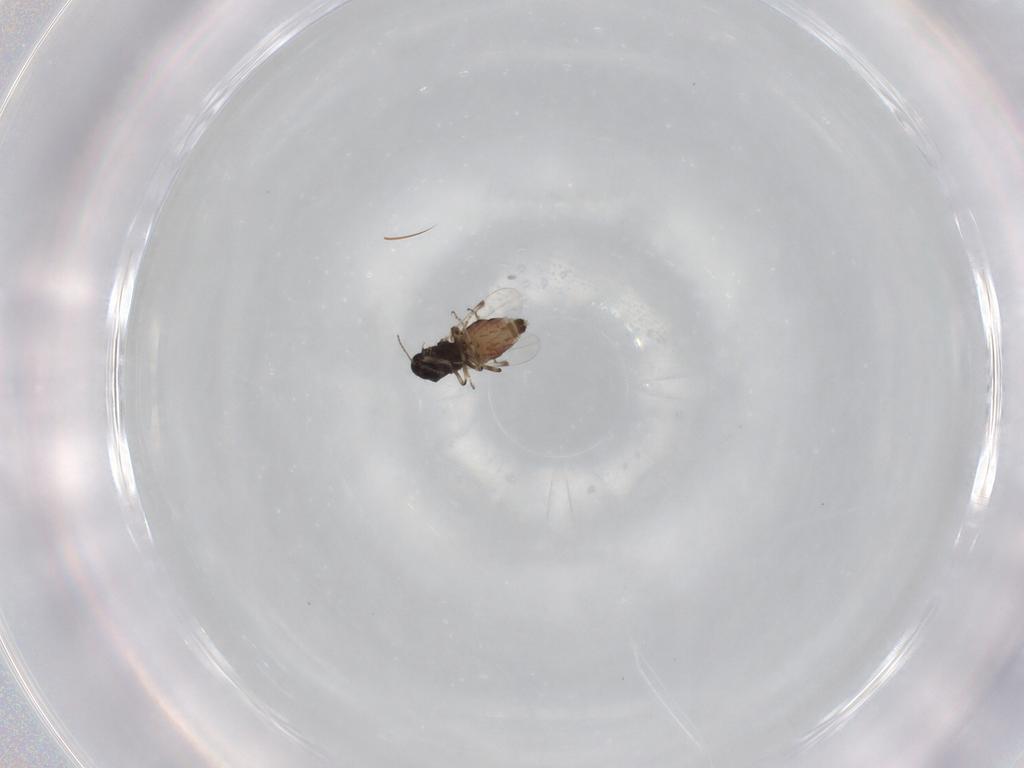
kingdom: Animalia
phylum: Arthropoda
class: Insecta
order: Diptera
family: Ceratopogonidae
